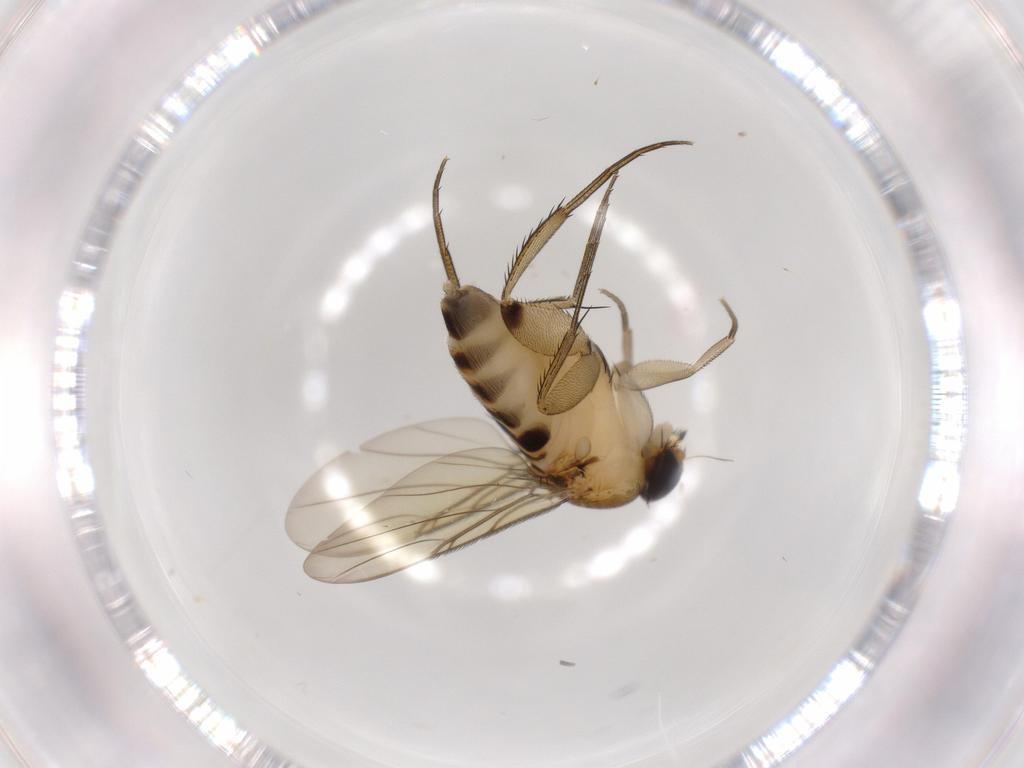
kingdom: Animalia
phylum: Arthropoda
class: Insecta
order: Diptera
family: Phoridae
